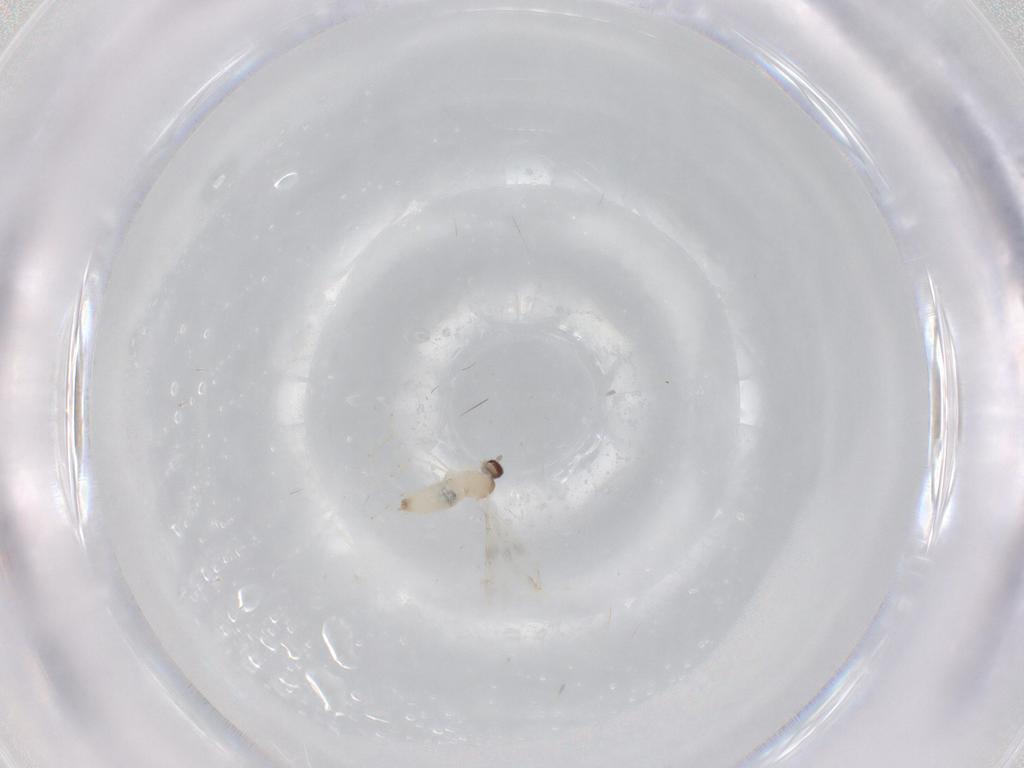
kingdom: Animalia
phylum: Arthropoda
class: Insecta
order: Diptera
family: Cecidomyiidae
